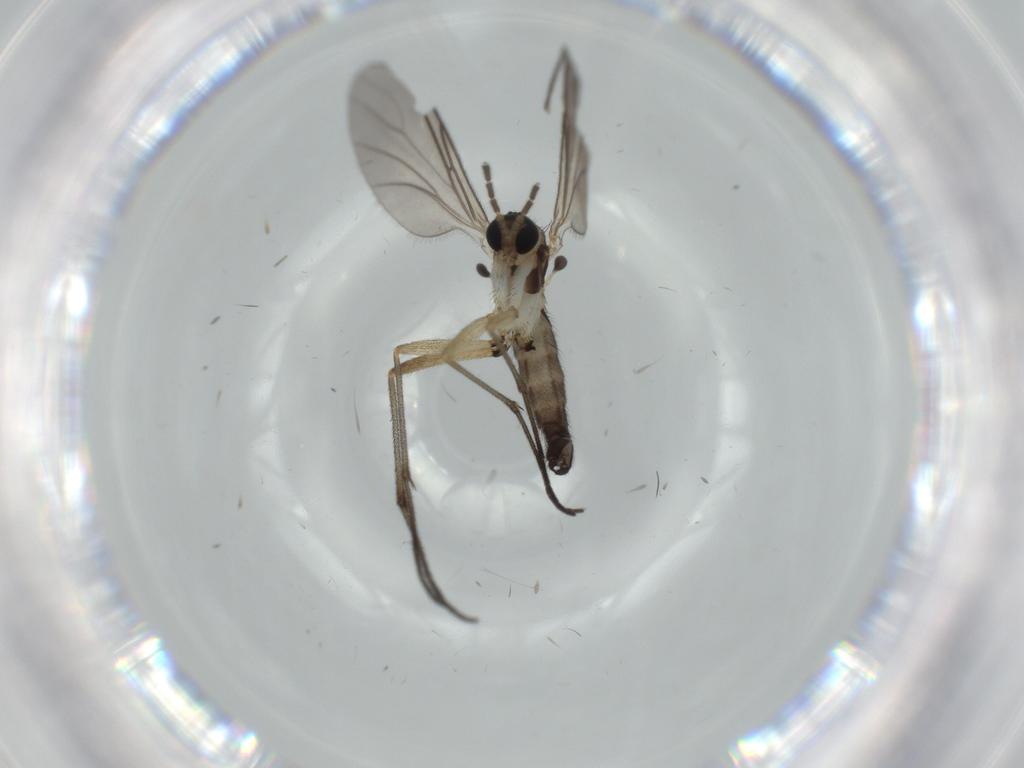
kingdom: Animalia
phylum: Arthropoda
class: Insecta
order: Diptera
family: Sciaridae
